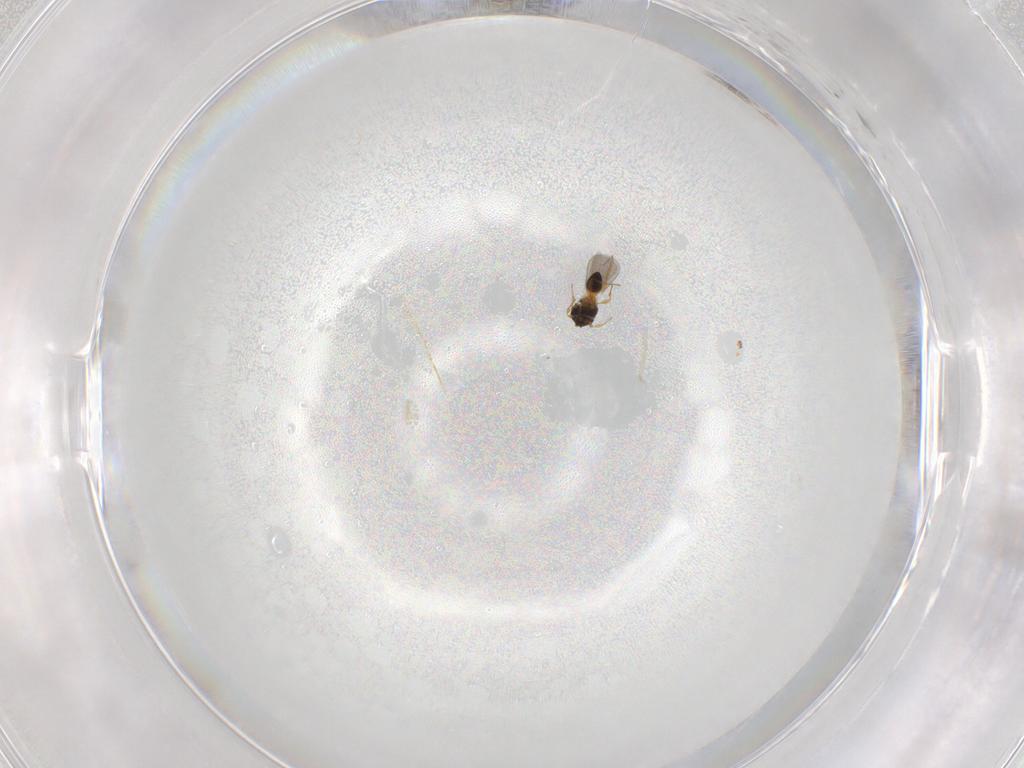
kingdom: Animalia
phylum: Arthropoda
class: Insecta
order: Hymenoptera
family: Platygastridae
